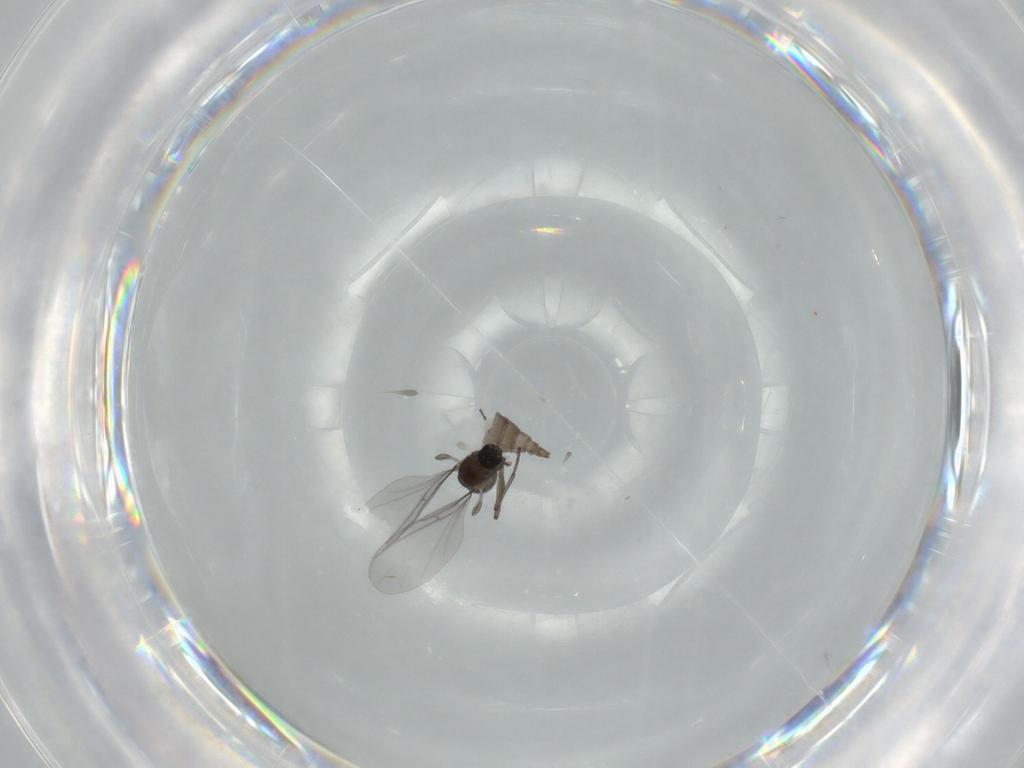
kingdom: Animalia
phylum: Arthropoda
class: Insecta
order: Diptera
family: Sciaridae
